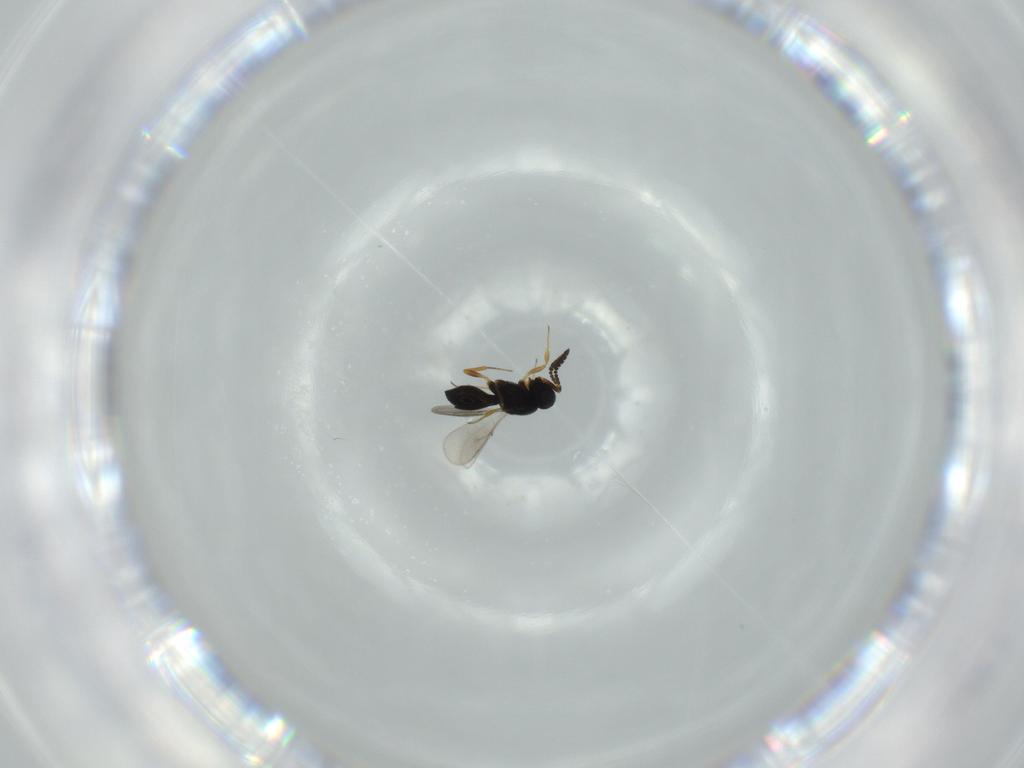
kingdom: Animalia
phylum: Arthropoda
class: Insecta
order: Hymenoptera
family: Scelionidae
